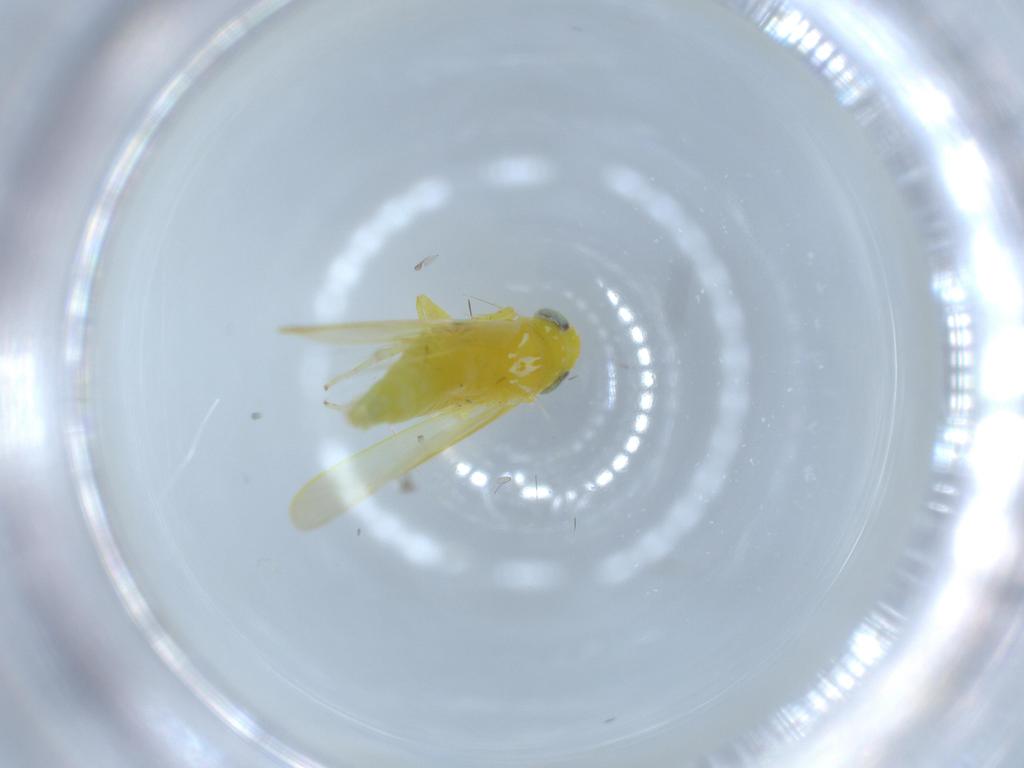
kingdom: Animalia
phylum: Arthropoda
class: Insecta
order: Hemiptera
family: Cicadellidae
